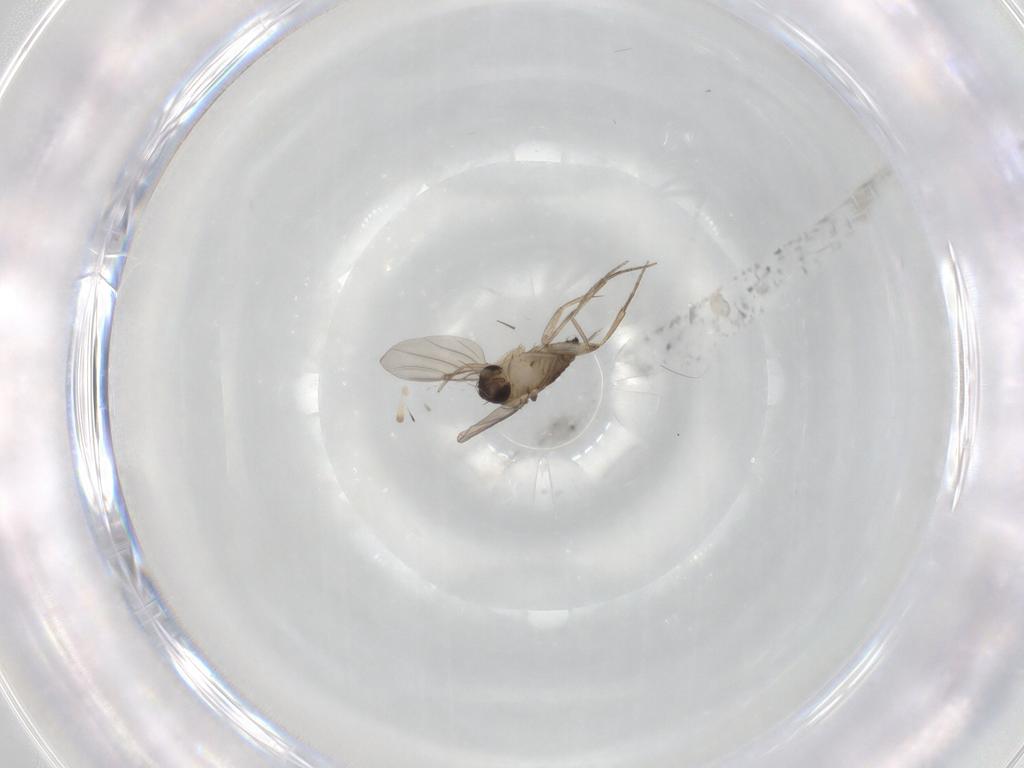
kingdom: Animalia
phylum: Arthropoda
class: Insecta
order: Diptera
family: Phoridae
